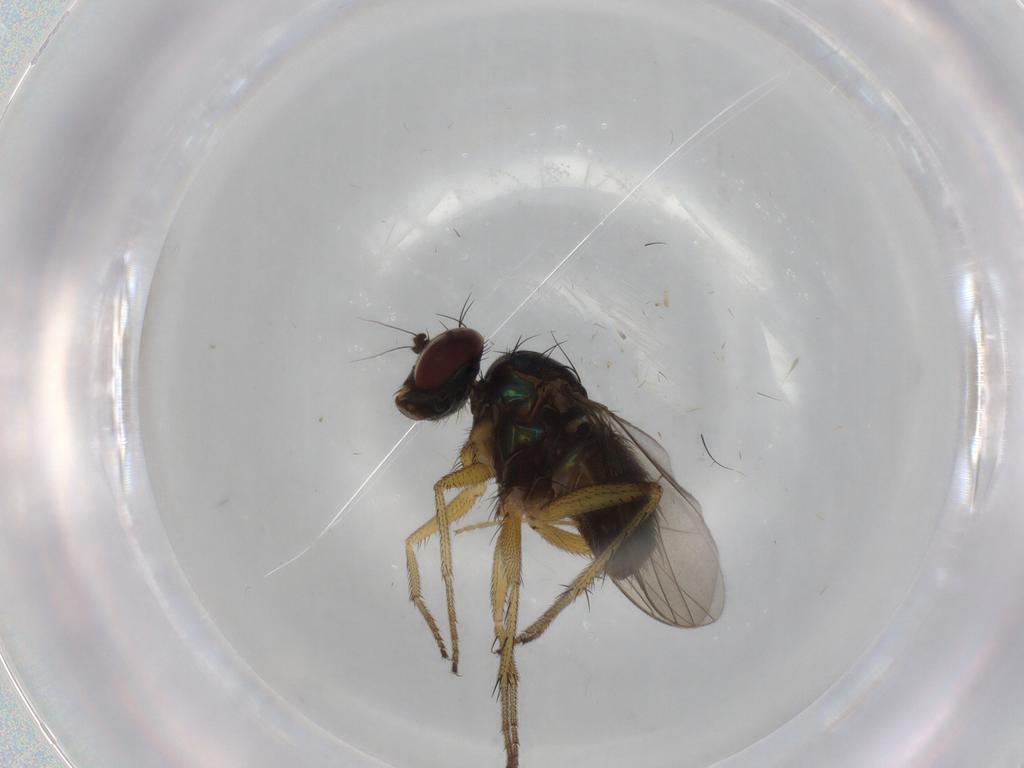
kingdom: Animalia
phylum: Arthropoda
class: Insecta
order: Diptera
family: Dolichopodidae
